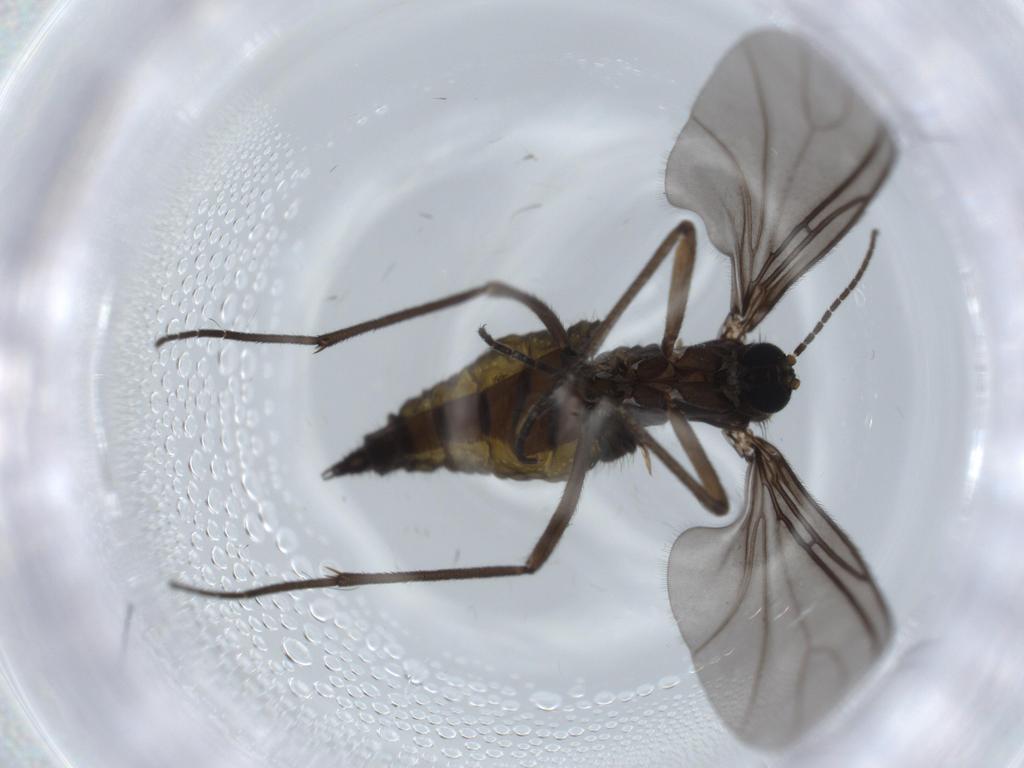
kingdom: Animalia
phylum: Arthropoda
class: Insecta
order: Diptera
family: Sciaridae
